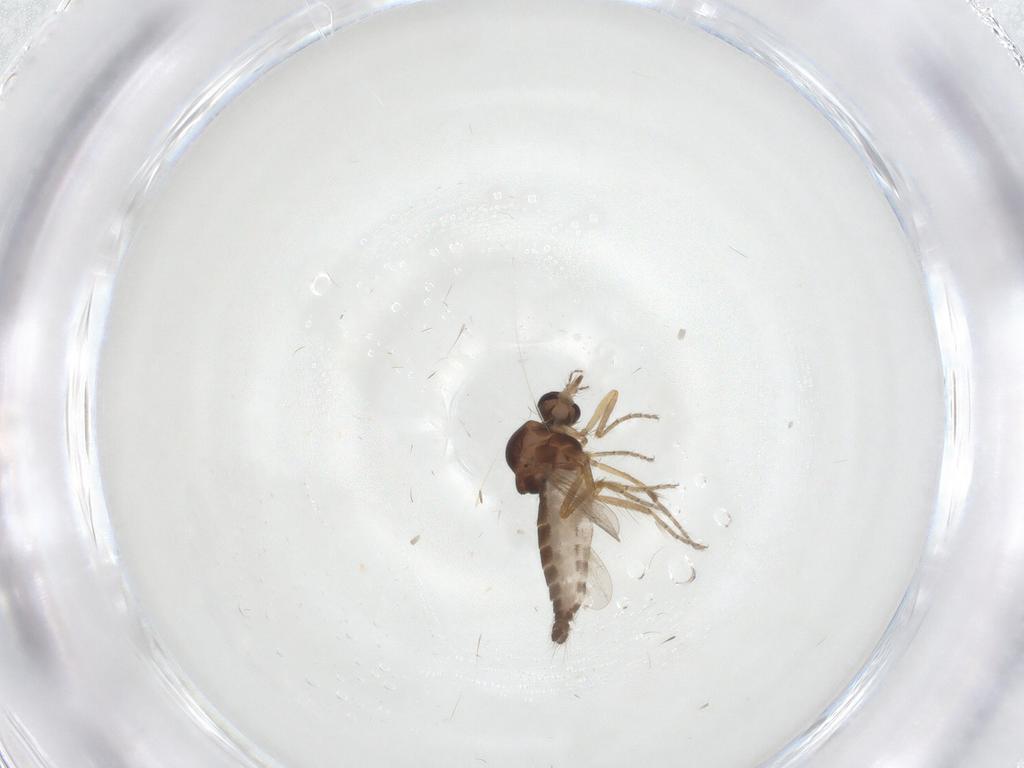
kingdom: Animalia
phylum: Arthropoda
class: Insecta
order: Diptera
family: Ceratopogonidae
